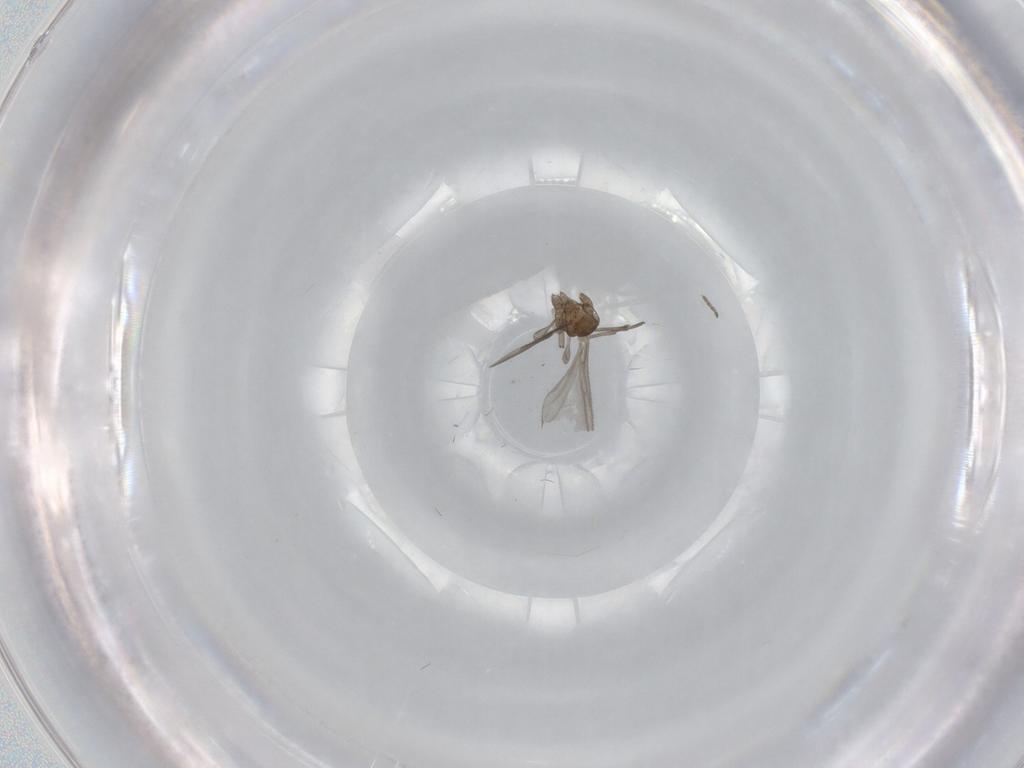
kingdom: Animalia
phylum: Arthropoda
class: Insecta
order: Diptera
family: Sciaridae
